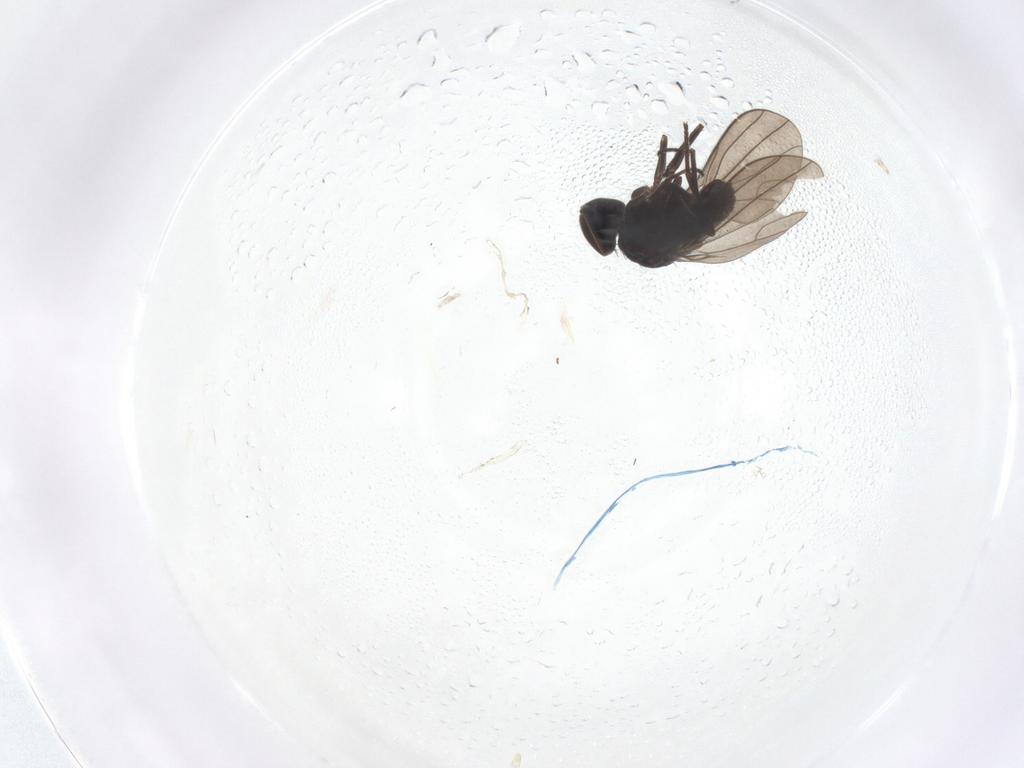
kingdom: Animalia
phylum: Arthropoda
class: Insecta
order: Diptera
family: Dolichopodidae
